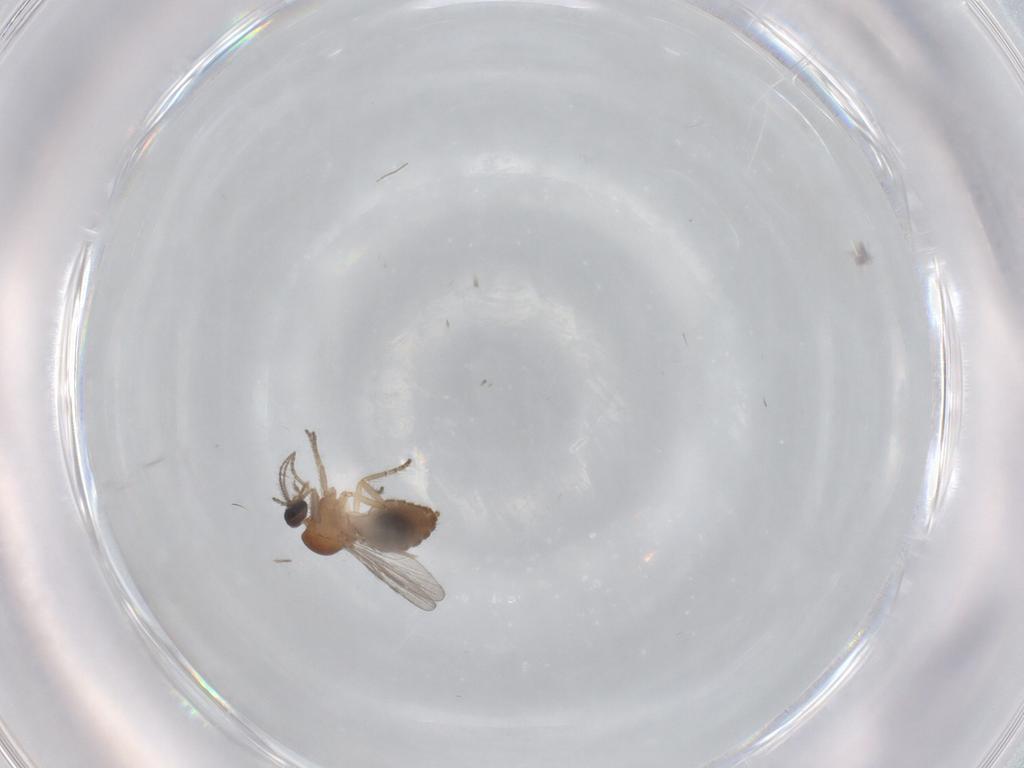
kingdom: Animalia
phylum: Arthropoda
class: Insecta
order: Diptera
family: Ceratopogonidae
